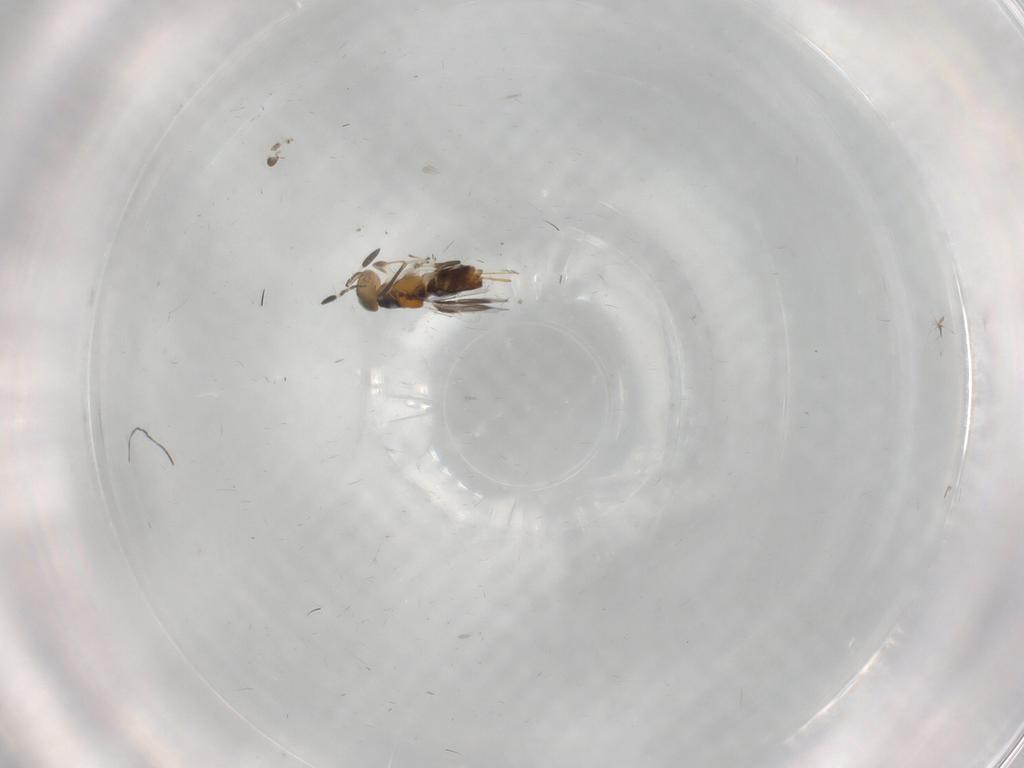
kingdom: Animalia
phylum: Arthropoda
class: Insecta
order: Hymenoptera
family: Encyrtidae
